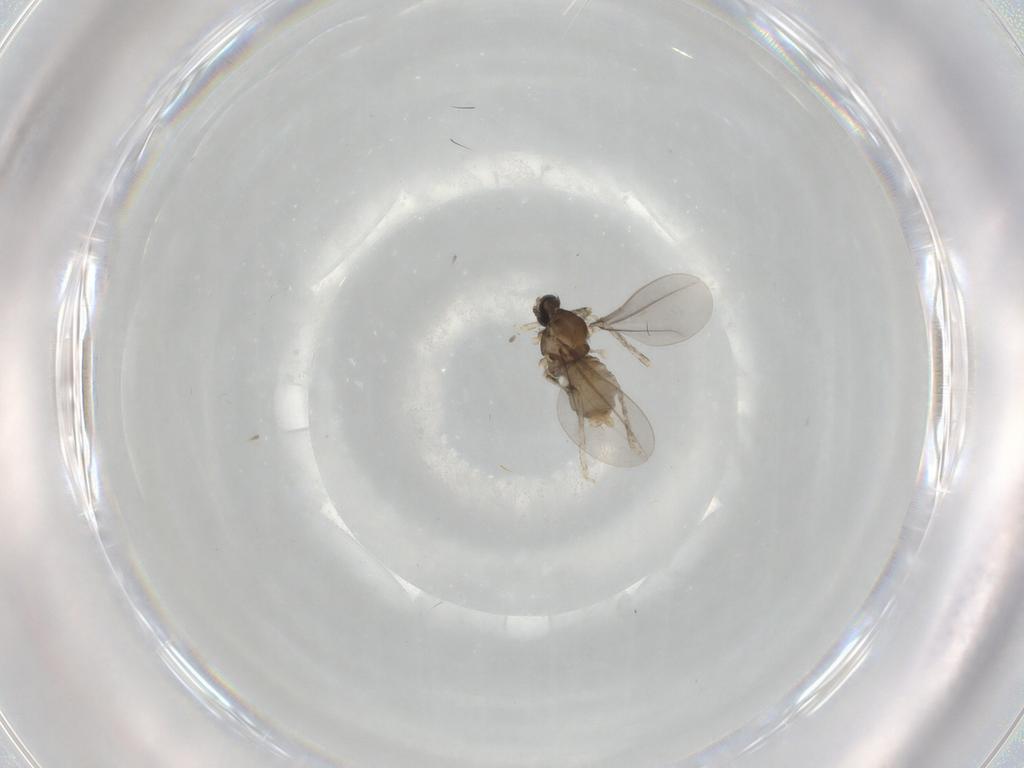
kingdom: Animalia
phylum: Arthropoda
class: Insecta
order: Diptera
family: Cecidomyiidae
